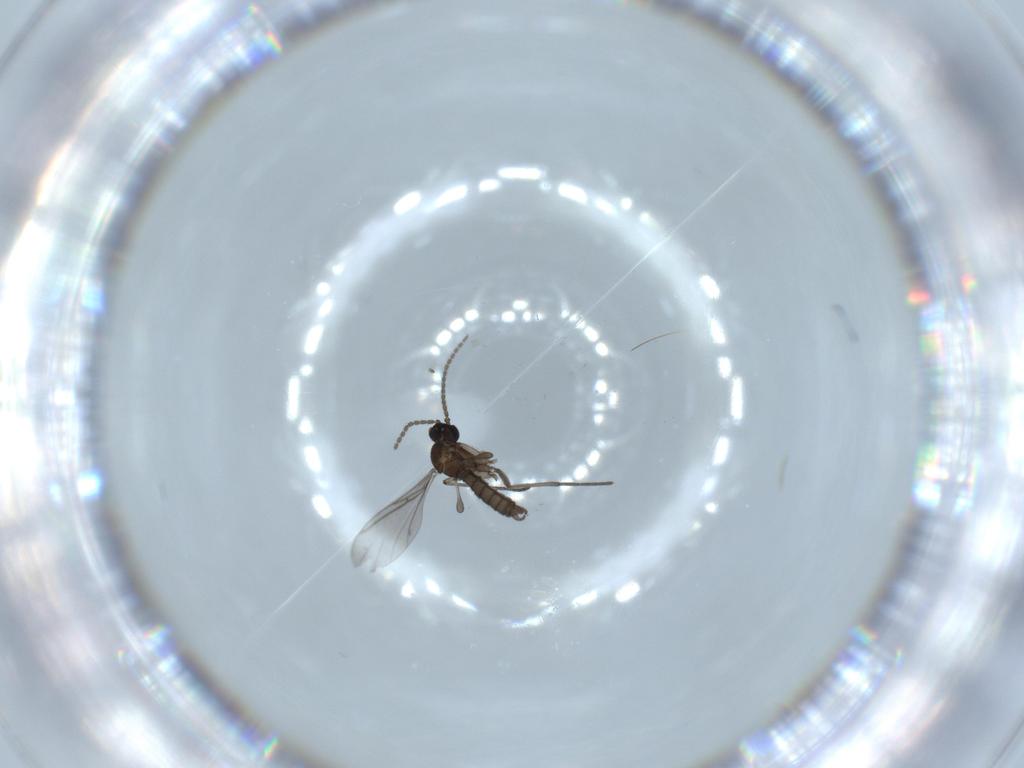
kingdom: Animalia
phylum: Arthropoda
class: Insecta
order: Diptera
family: Sciaridae
